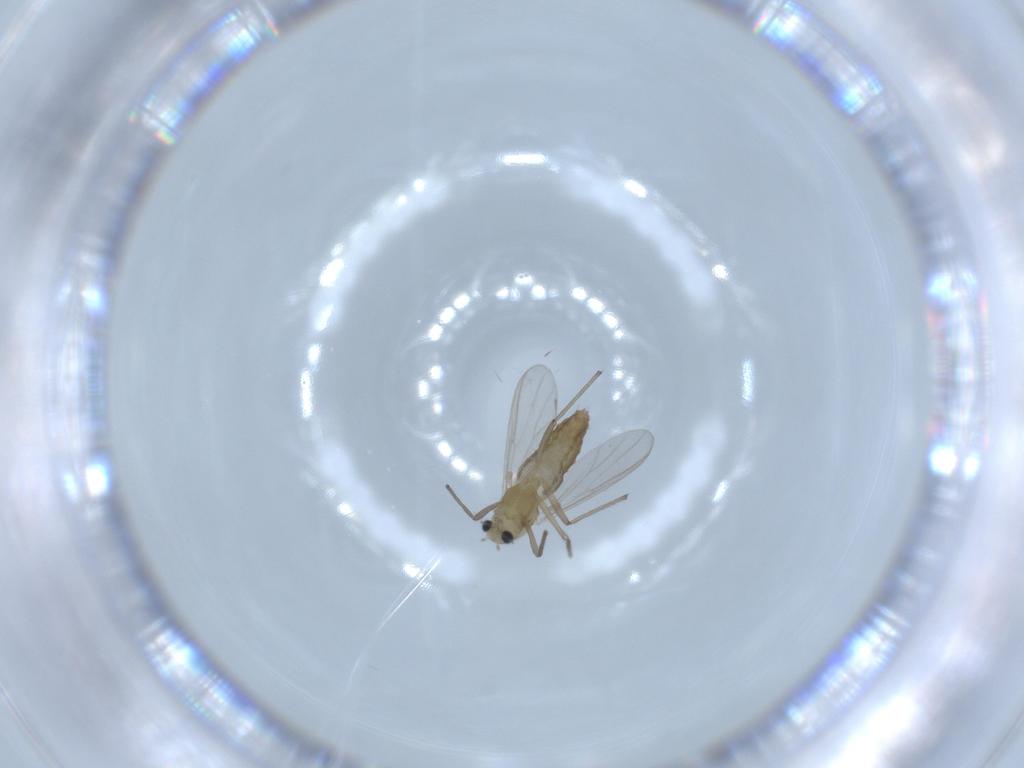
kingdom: Animalia
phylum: Arthropoda
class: Insecta
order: Diptera
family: Chironomidae
